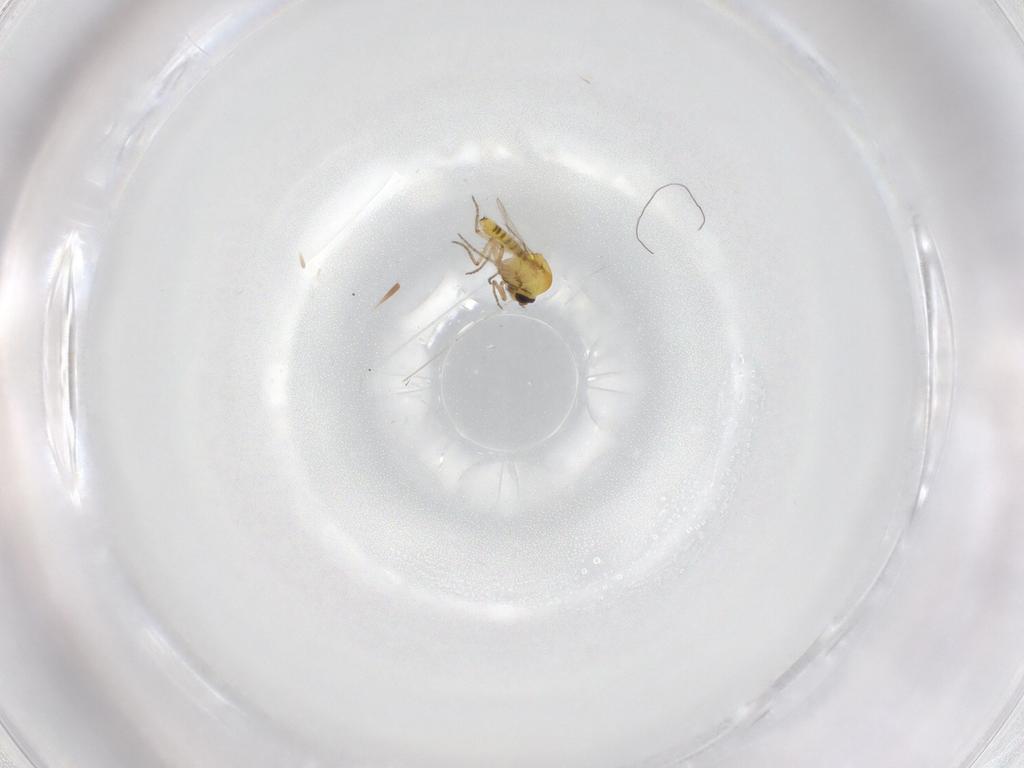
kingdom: Animalia
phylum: Arthropoda
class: Insecta
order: Diptera
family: Ceratopogonidae
